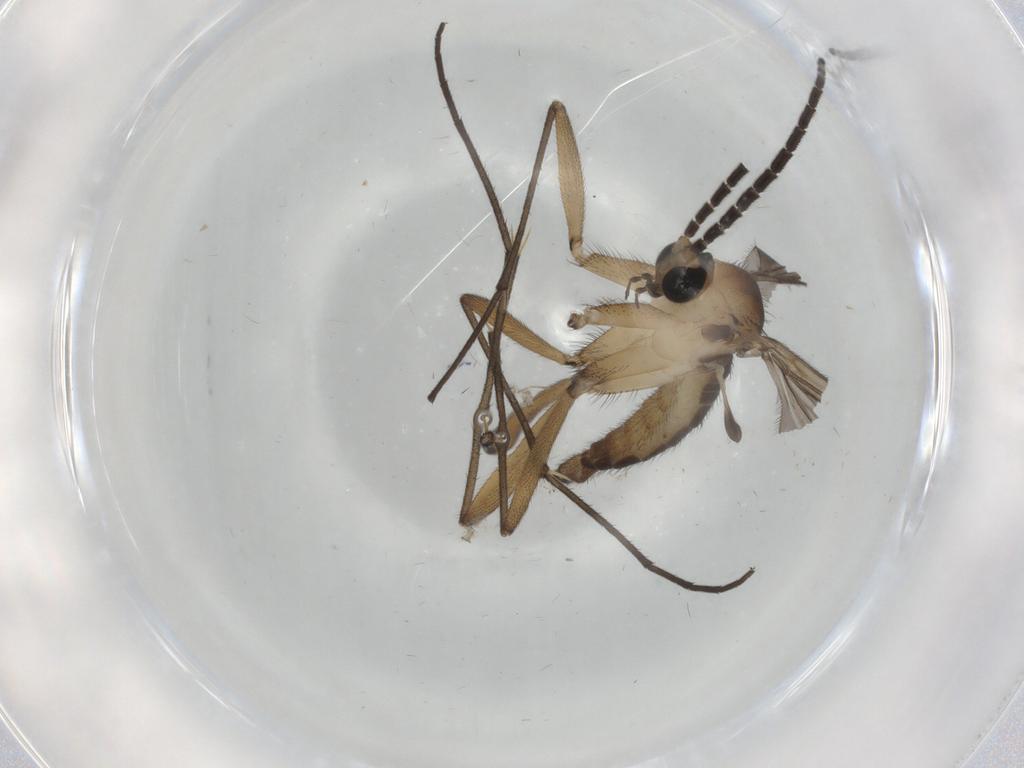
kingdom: Animalia
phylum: Arthropoda
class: Insecta
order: Diptera
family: Sciaridae
